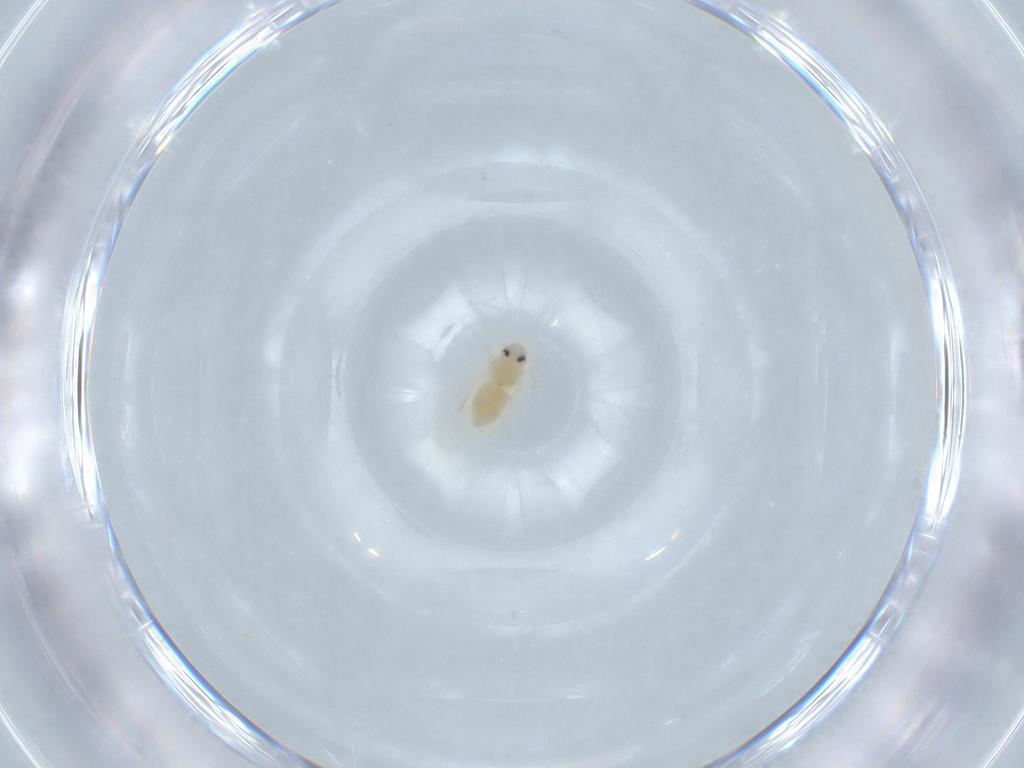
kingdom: Animalia
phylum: Arthropoda
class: Insecta
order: Hemiptera
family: Aleyrodidae
